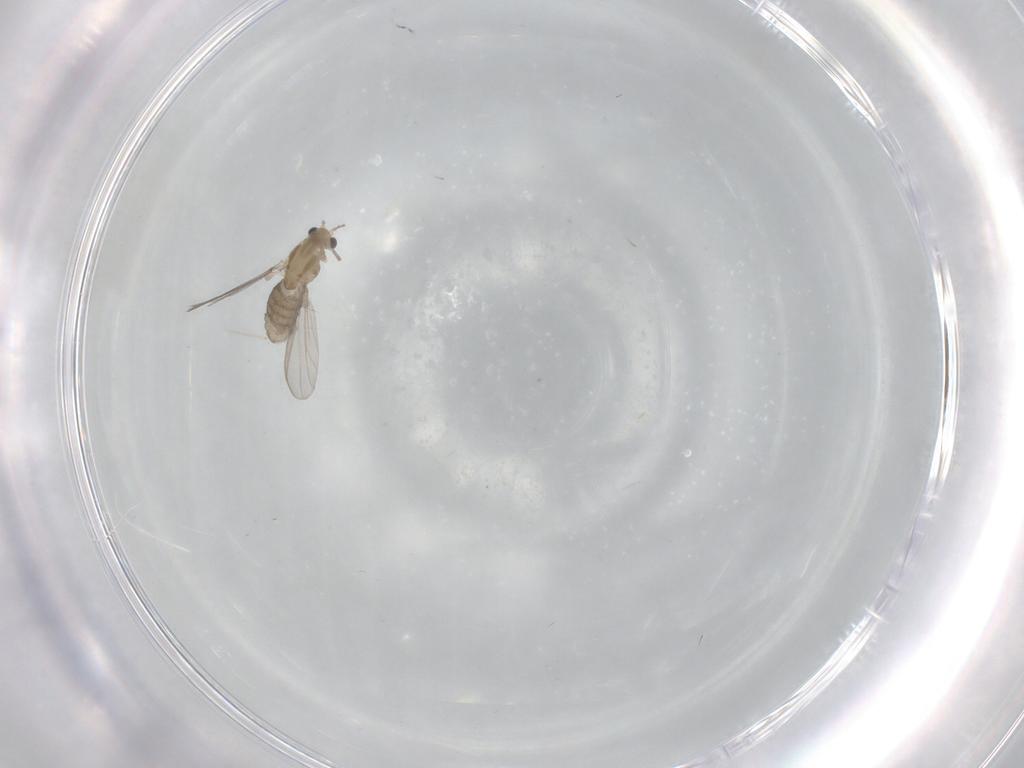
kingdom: Animalia
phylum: Arthropoda
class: Insecta
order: Diptera
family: Chironomidae
